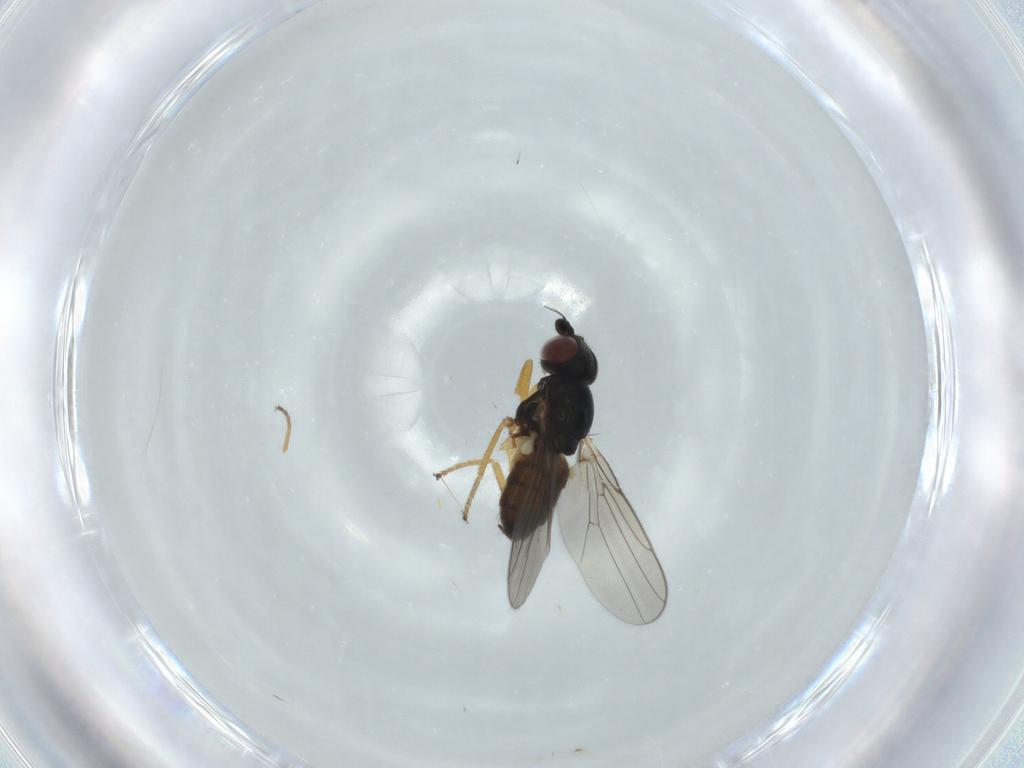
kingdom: Animalia
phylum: Arthropoda
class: Insecta
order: Diptera
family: Chloropidae
